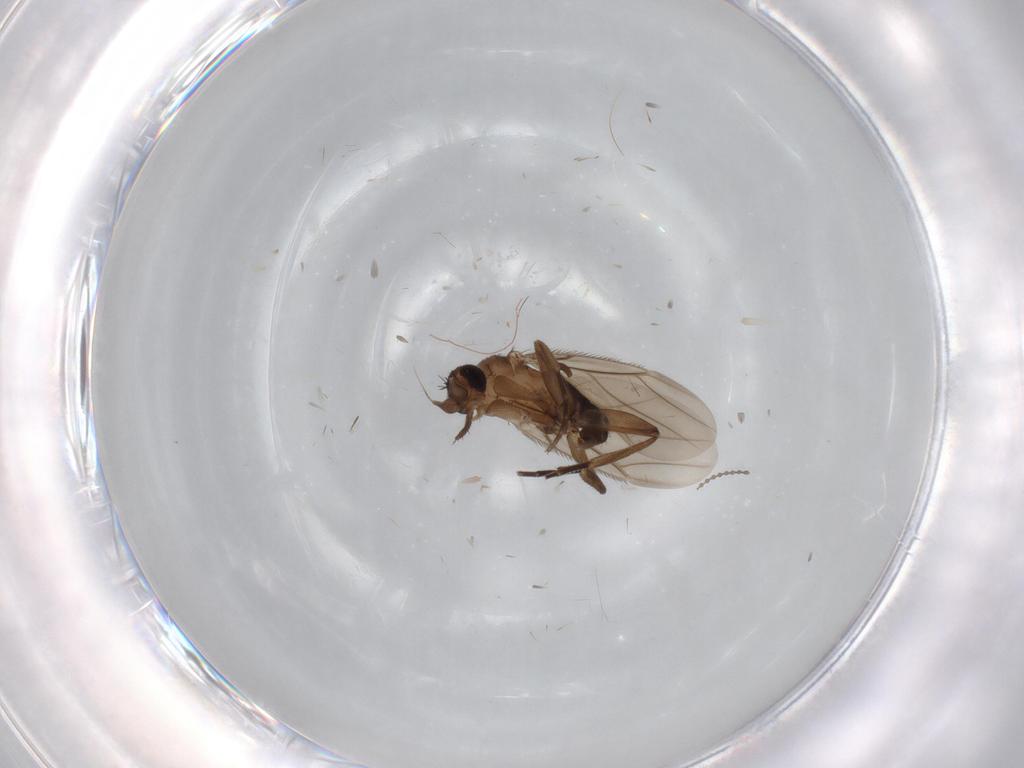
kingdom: Animalia
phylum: Arthropoda
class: Insecta
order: Diptera
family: Phoridae
